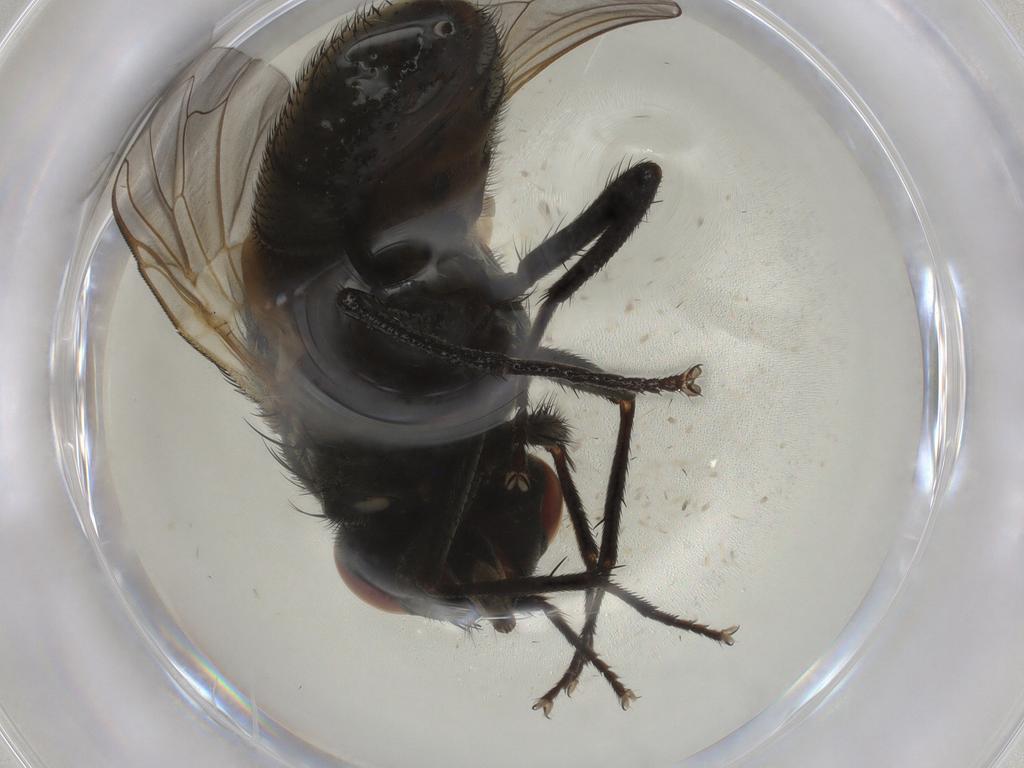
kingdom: Animalia
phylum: Arthropoda
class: Insecta
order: Diptera
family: Muscidae
